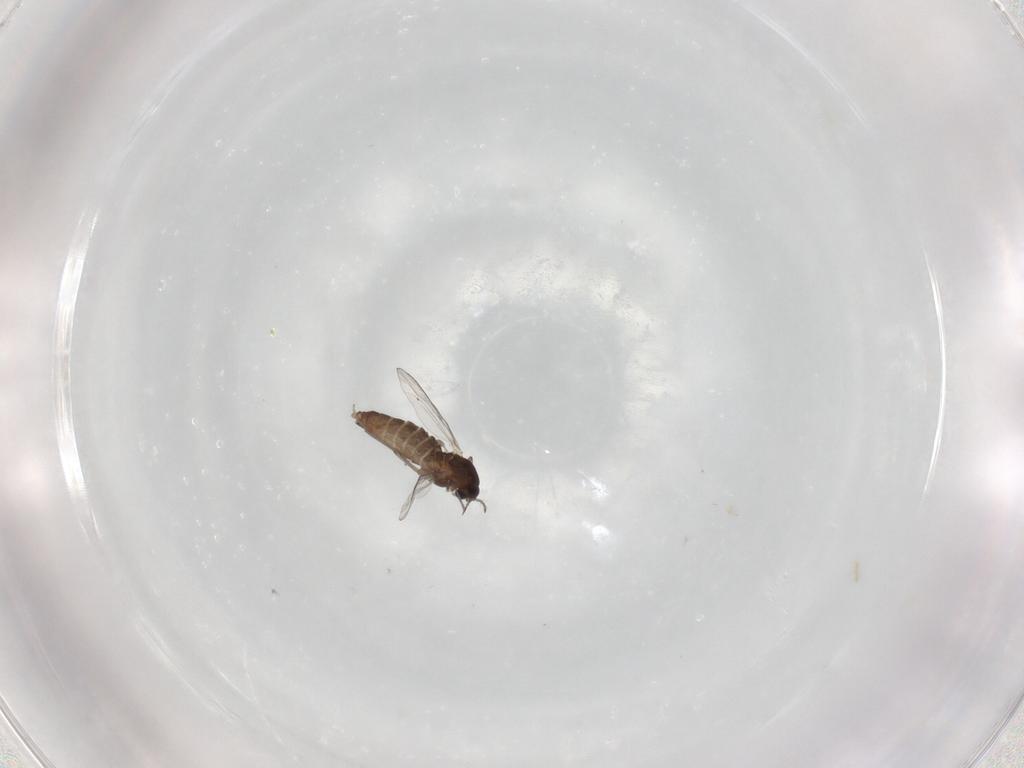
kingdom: Animalia
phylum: Arthropoda
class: Insecta
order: Diptera
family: Chironomidae
